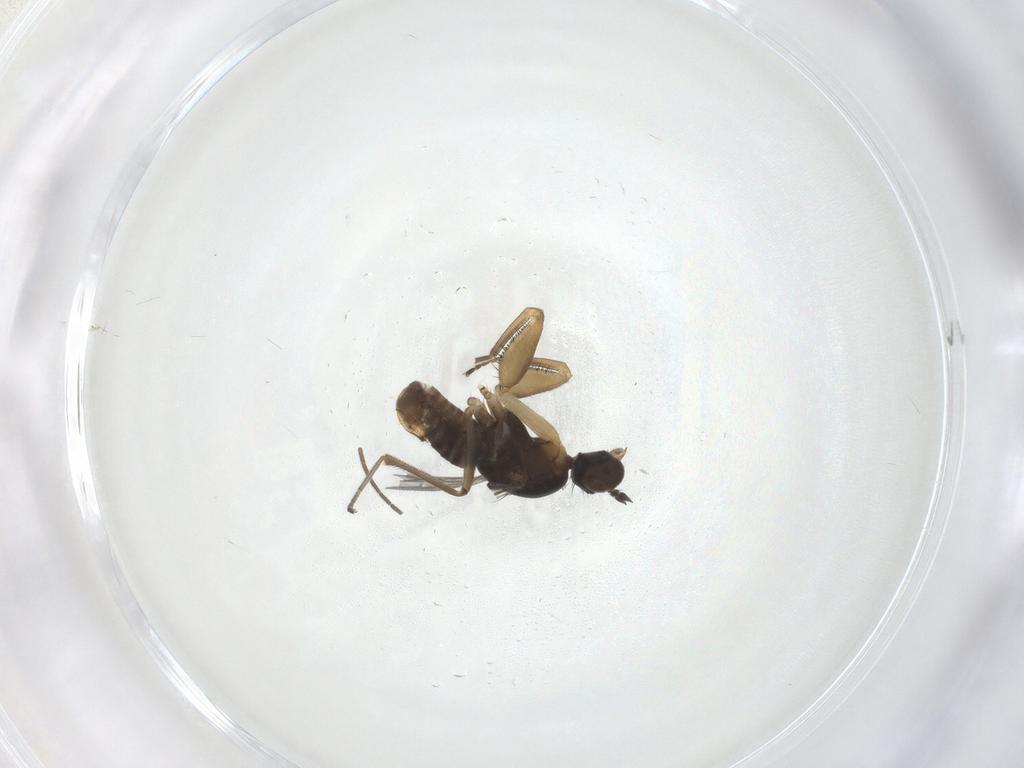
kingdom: Animalia
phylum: Arthropoda
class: Insecta
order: Diptera
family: Empididae
